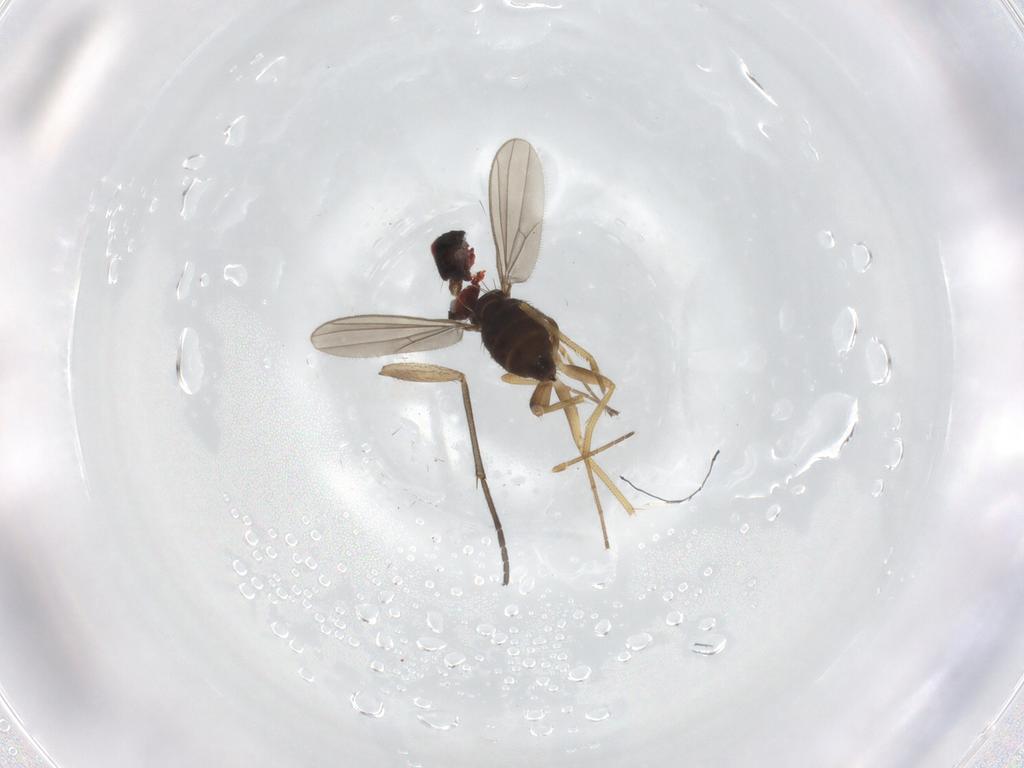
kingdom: Animalia
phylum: Arthropoda
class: Insecta
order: Diptera
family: Dolichopodidae
